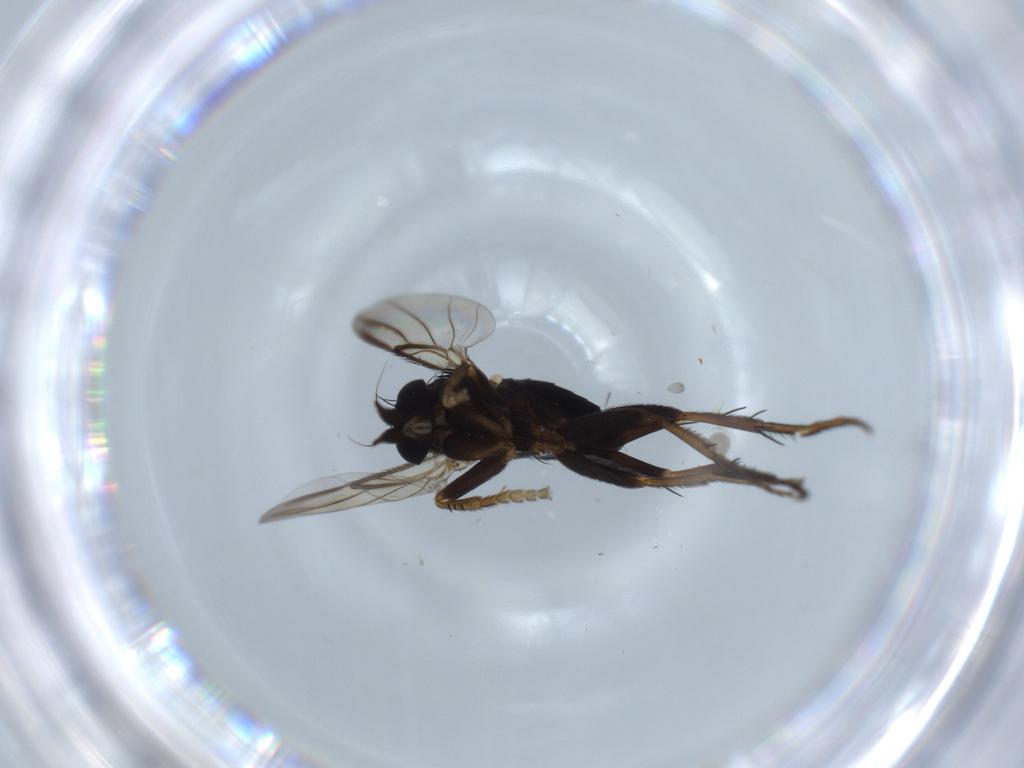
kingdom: Animalia
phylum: Arthropoda
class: Insecta
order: Diptera
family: Phoridae
